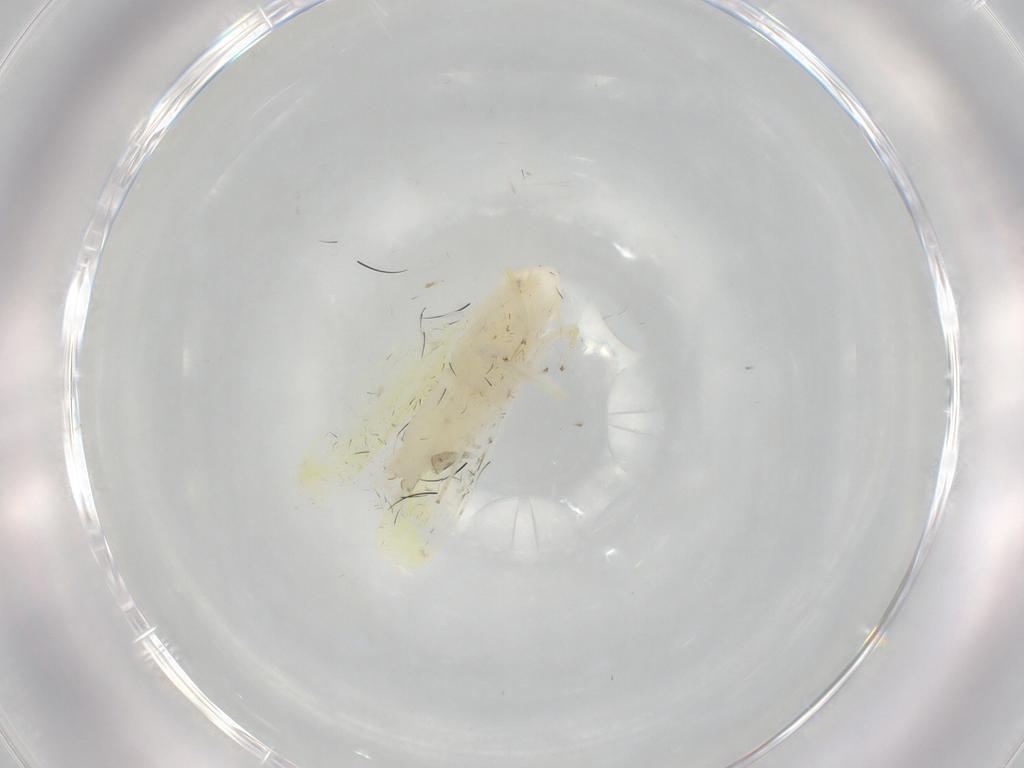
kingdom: Animalia
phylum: Arthropoda
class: Insecta
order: Hemiptera
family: Cicadellidae
